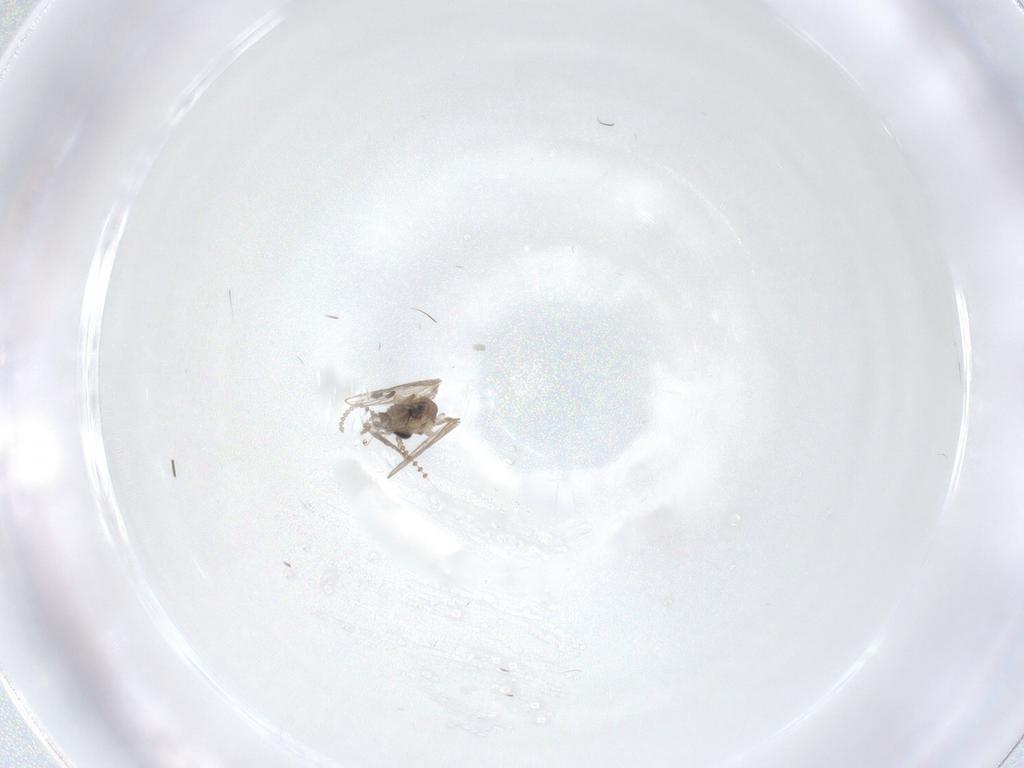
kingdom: Animalia
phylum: Arthropoda
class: Insecta
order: Diptera
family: Psychodidae
